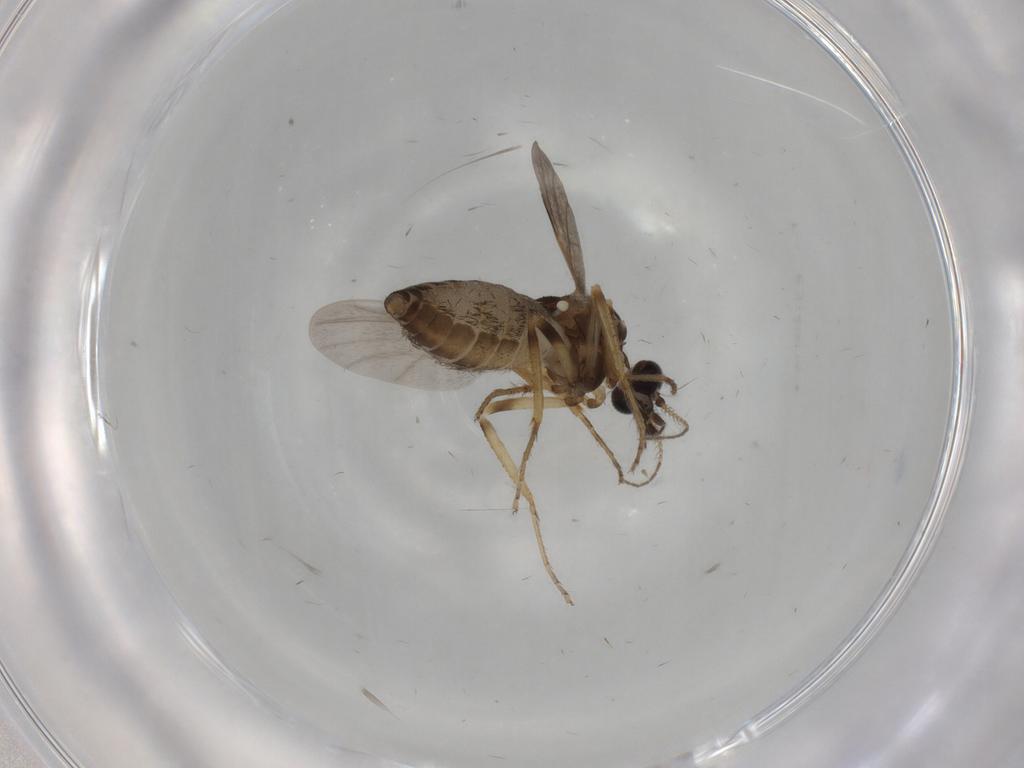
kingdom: Animalia
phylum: Arthropoda
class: Insecta
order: Diptera
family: Ceratopogonidae
